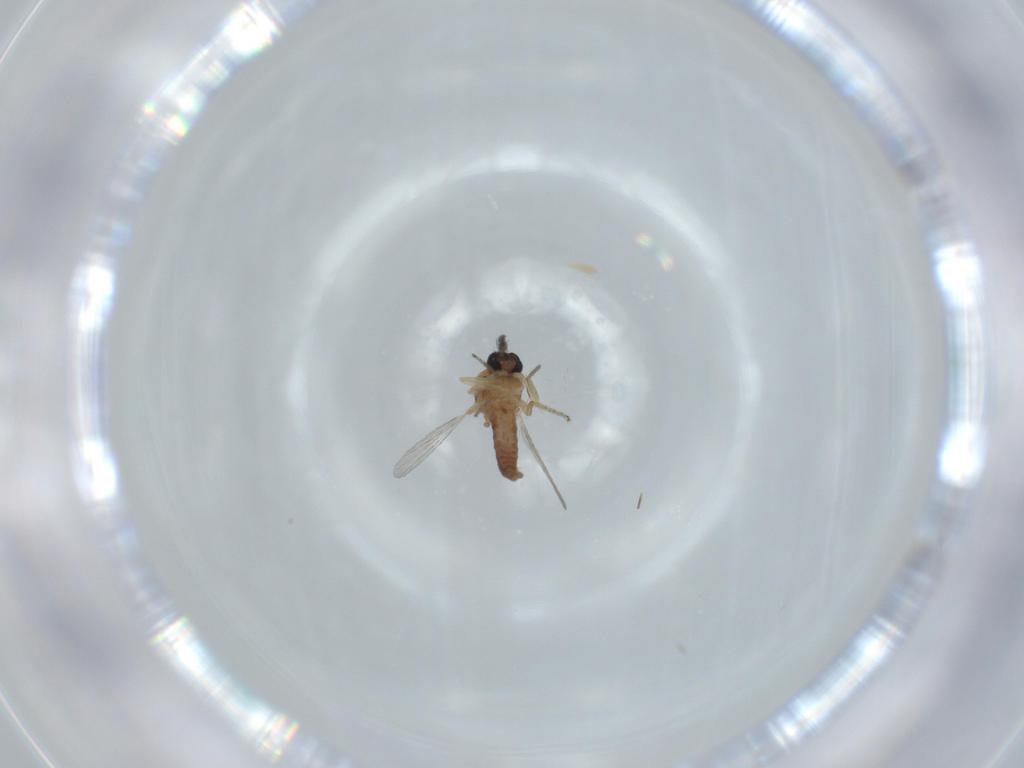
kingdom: Animalia
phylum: Arthropoda
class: Insecta
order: Diptera
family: Ceratopogonidae
